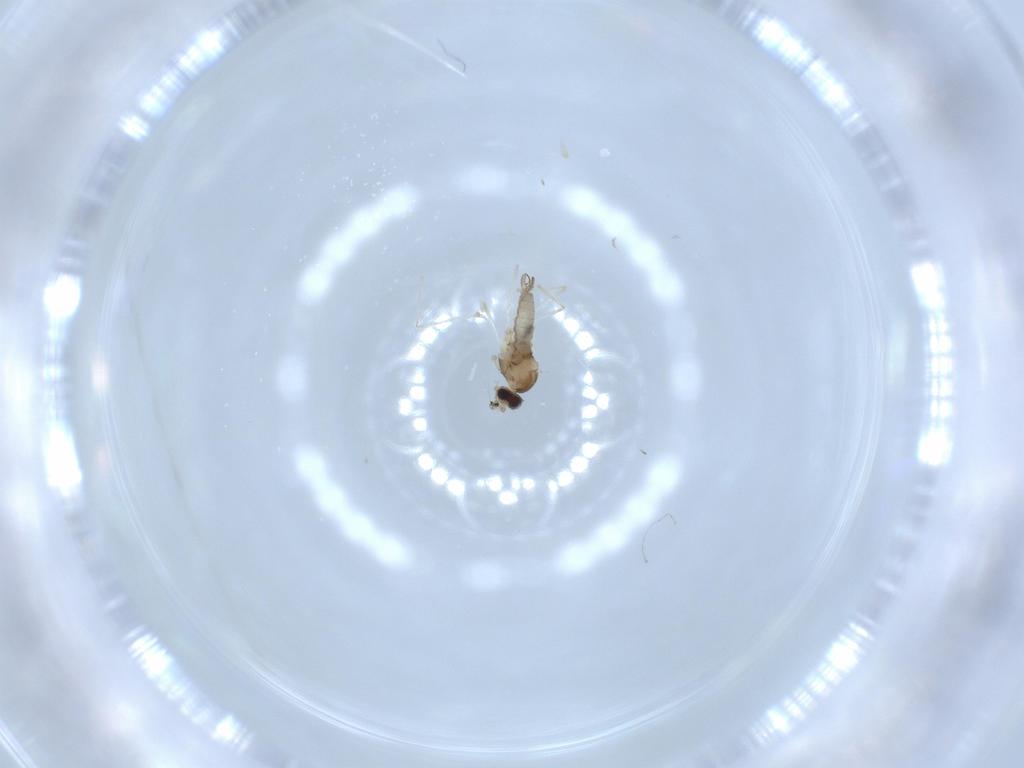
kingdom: Animalia
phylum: Arthropoda
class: Insecta
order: Diptera
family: Cecidomyiidae
